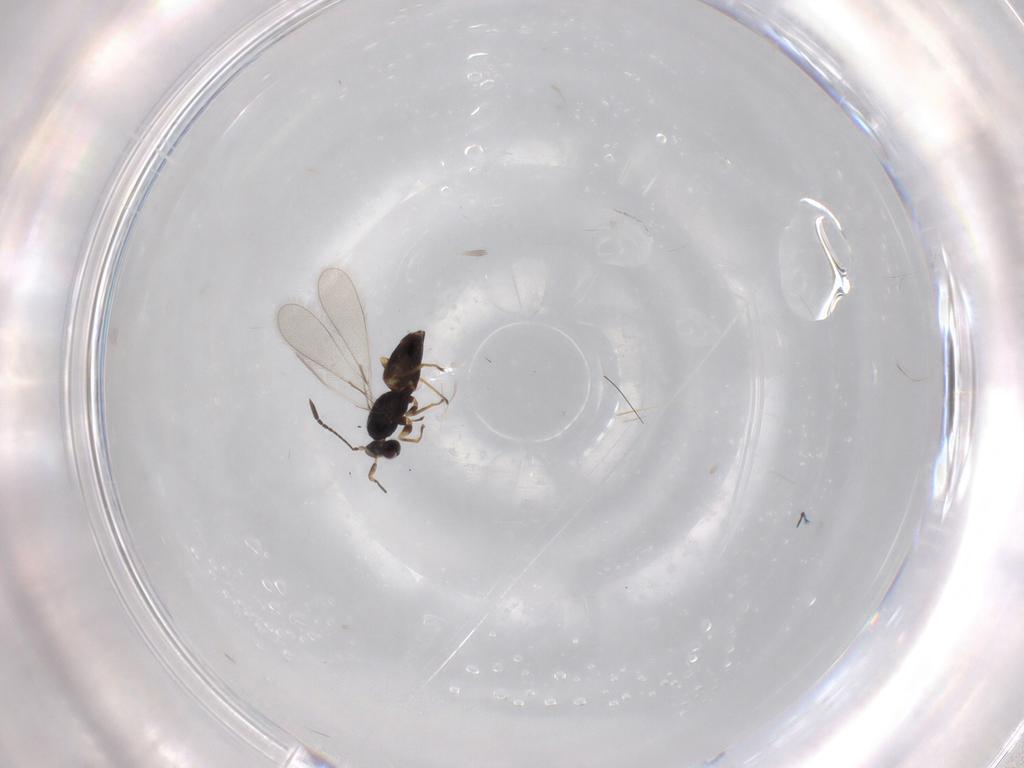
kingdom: Animalia
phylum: Arthropoda
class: Insecta
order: Hymenoptera
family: Mymaridae
